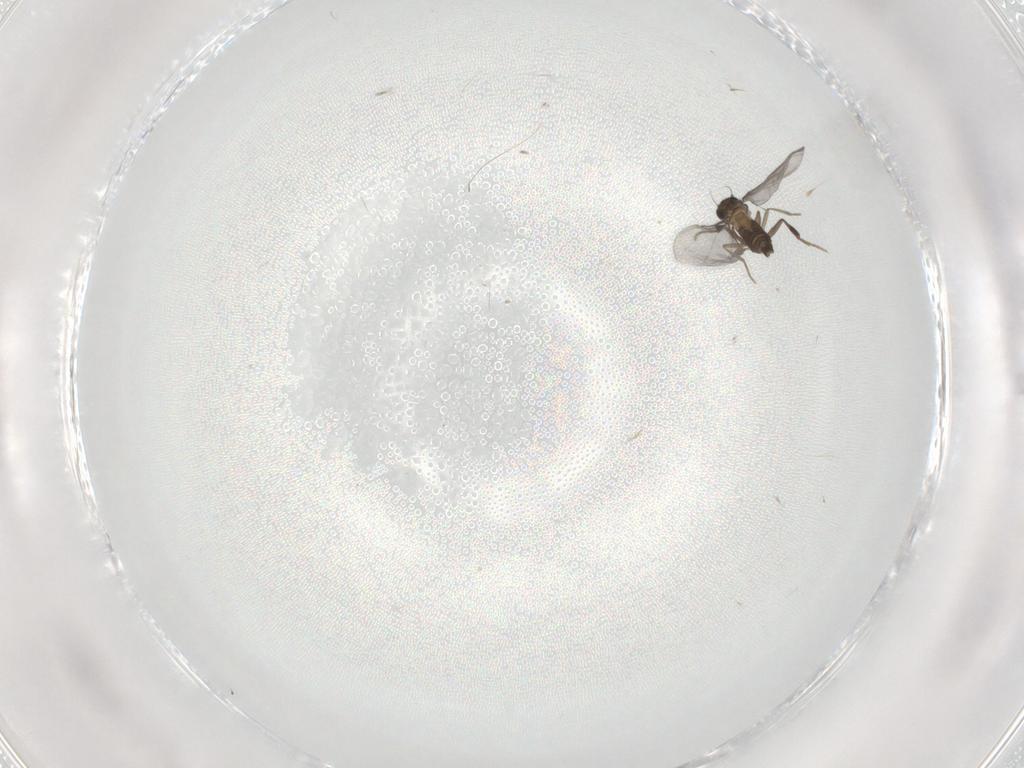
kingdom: Animalia
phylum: Arthropoda
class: Insecta
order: Diptera
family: Phoridae
